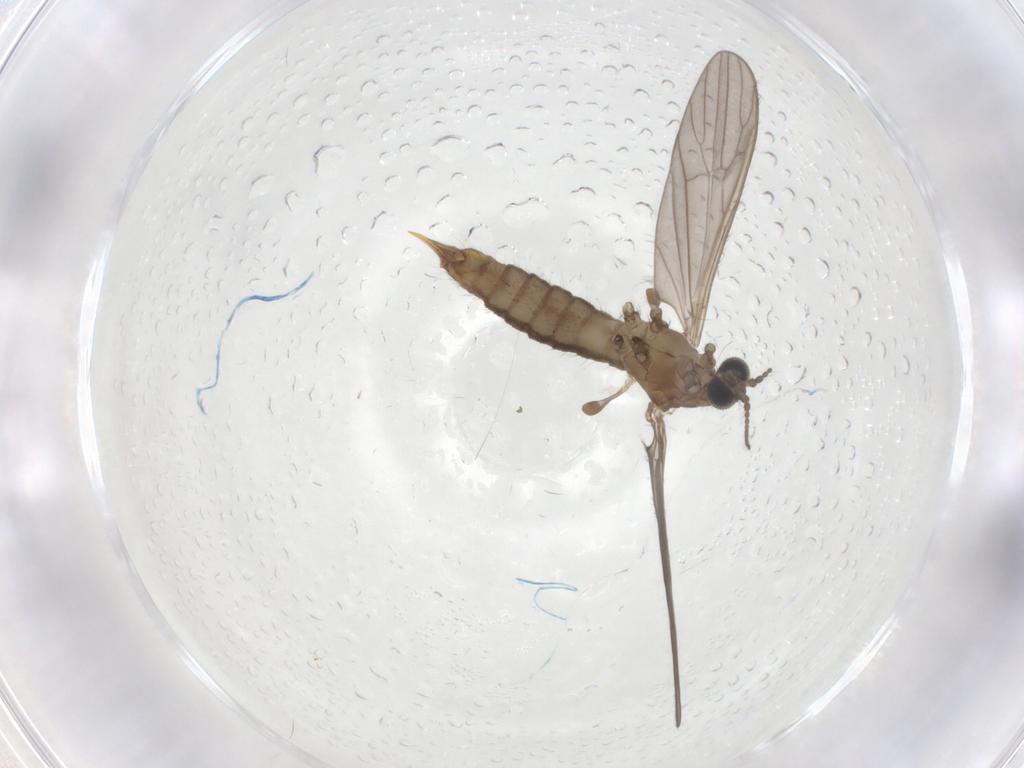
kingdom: Animalia
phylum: Arthropoda
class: Insecta
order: Diptera
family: Limoniidae
